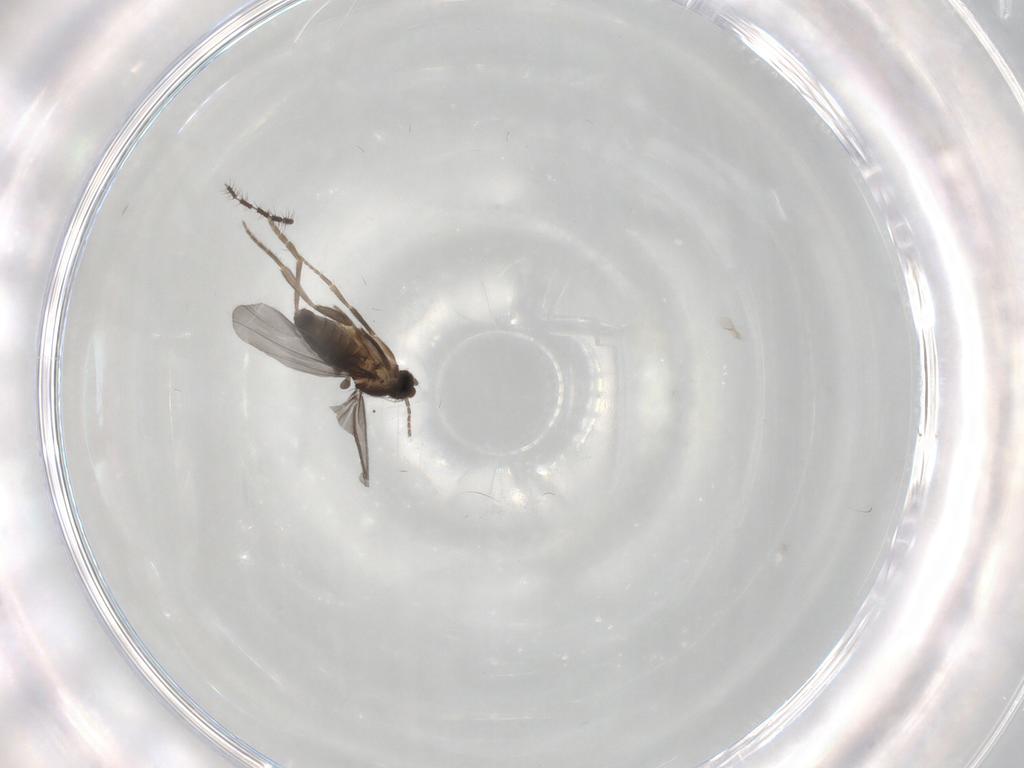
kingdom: Animalia
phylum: Arthropoda
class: Insecta
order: Diptera
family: Phoridae
